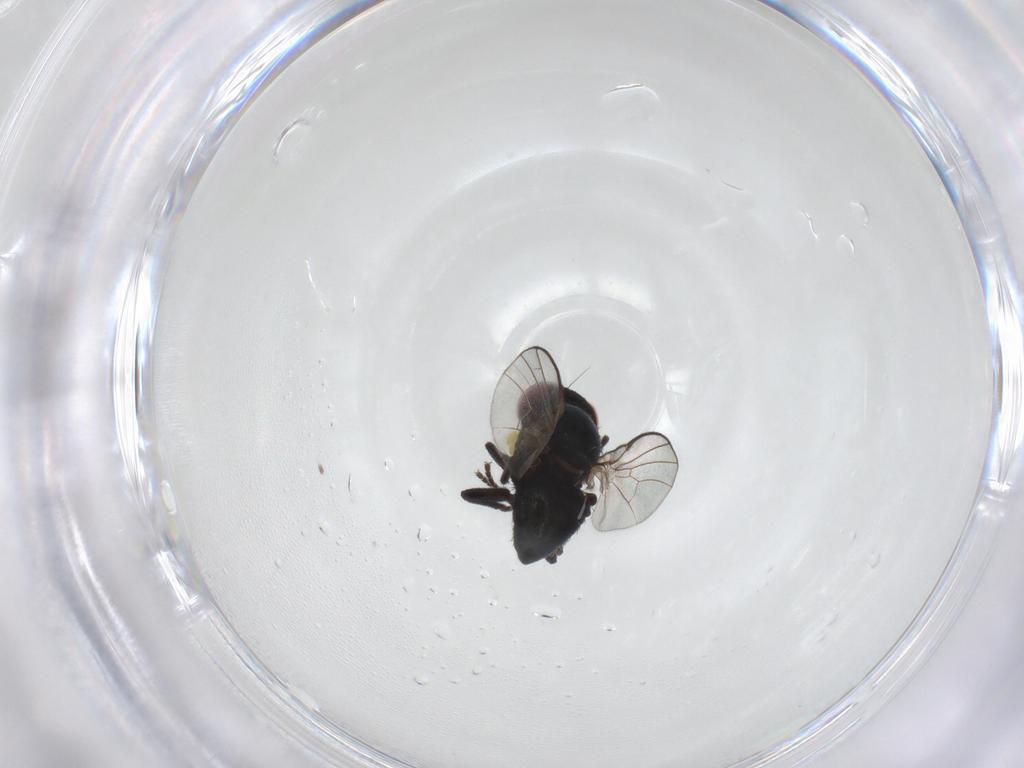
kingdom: Animalia
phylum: Arthropoda
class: Insecta
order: Diptera
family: Agromyzidae
